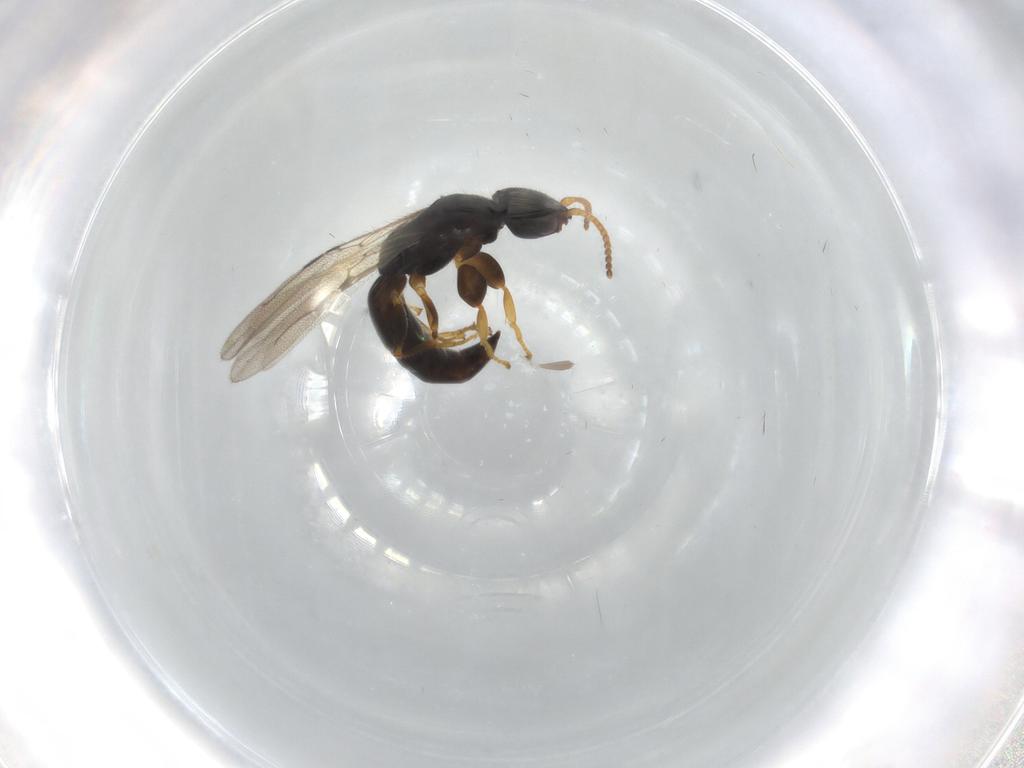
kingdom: Animalia
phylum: Arthropoda
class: Insecta
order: Hymenoptera
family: Bethylidae
